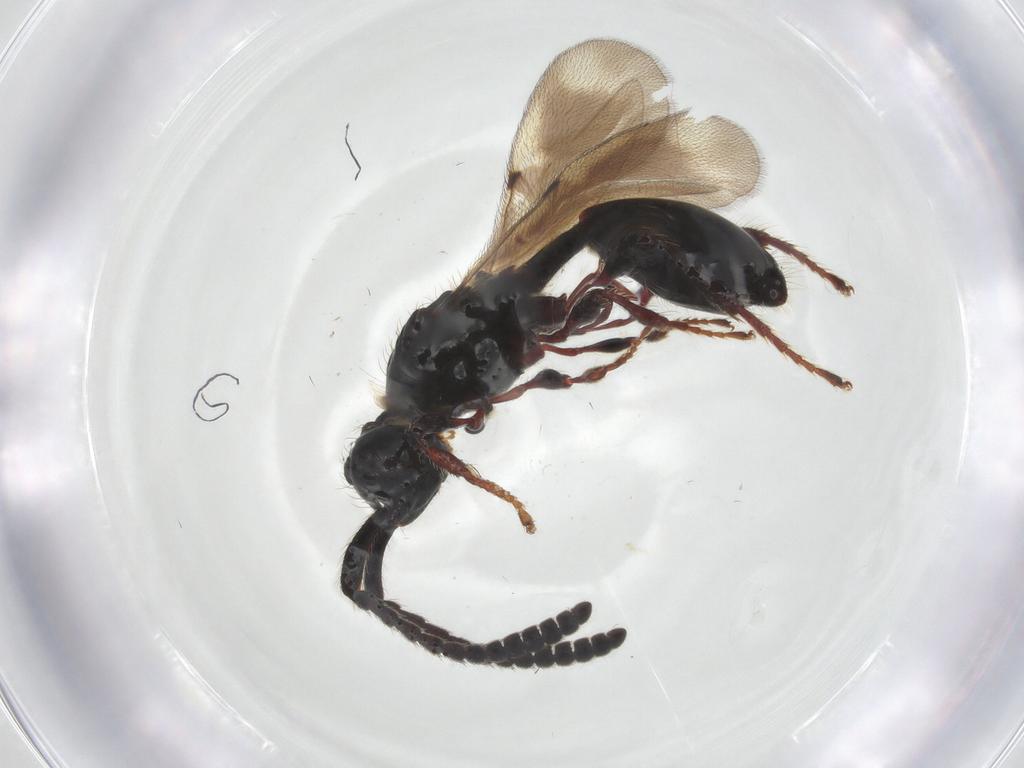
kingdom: Animalia
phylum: Arthropoda
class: Insecta
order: Hymenoptera
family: Diapriidae
